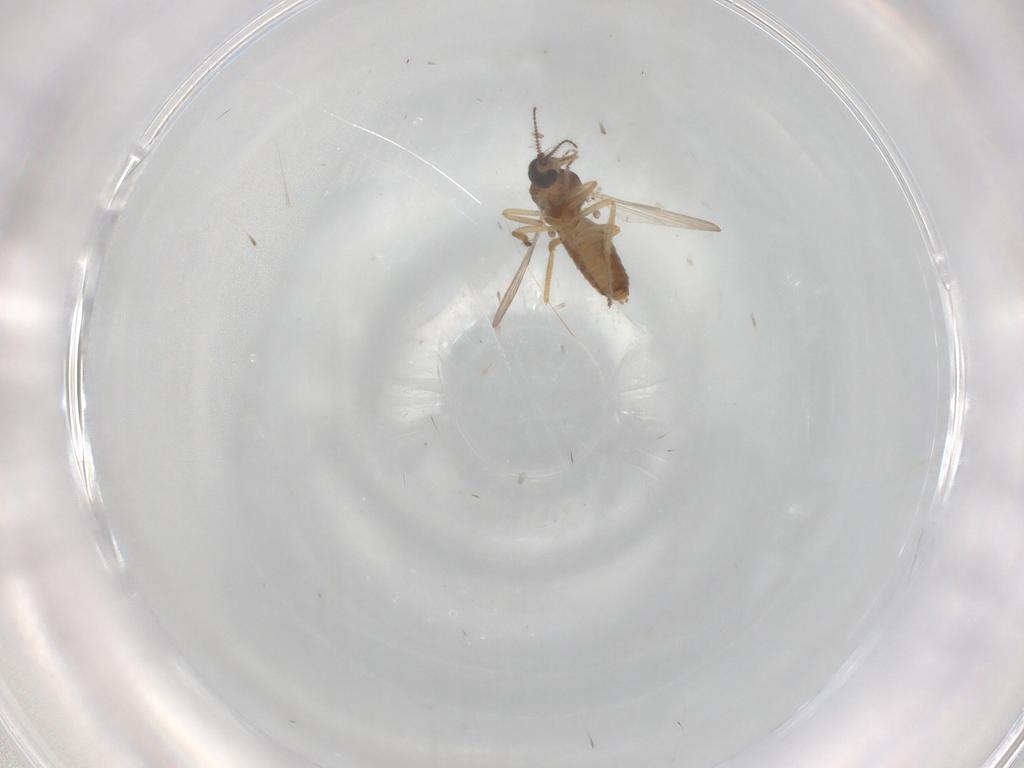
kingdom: Animalia
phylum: Arthropoda
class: Insecta
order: Diptera
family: Ceratopogonidae
